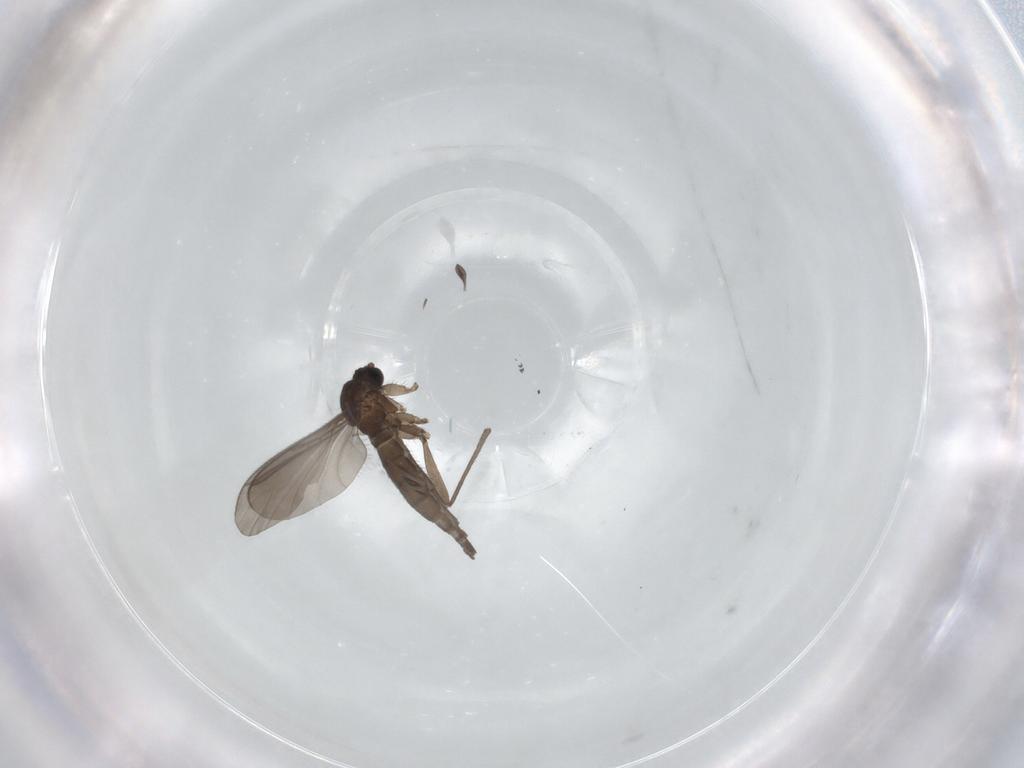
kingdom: Animalia
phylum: Arthropoda
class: Insecta
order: Diptera
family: Sciaridae
